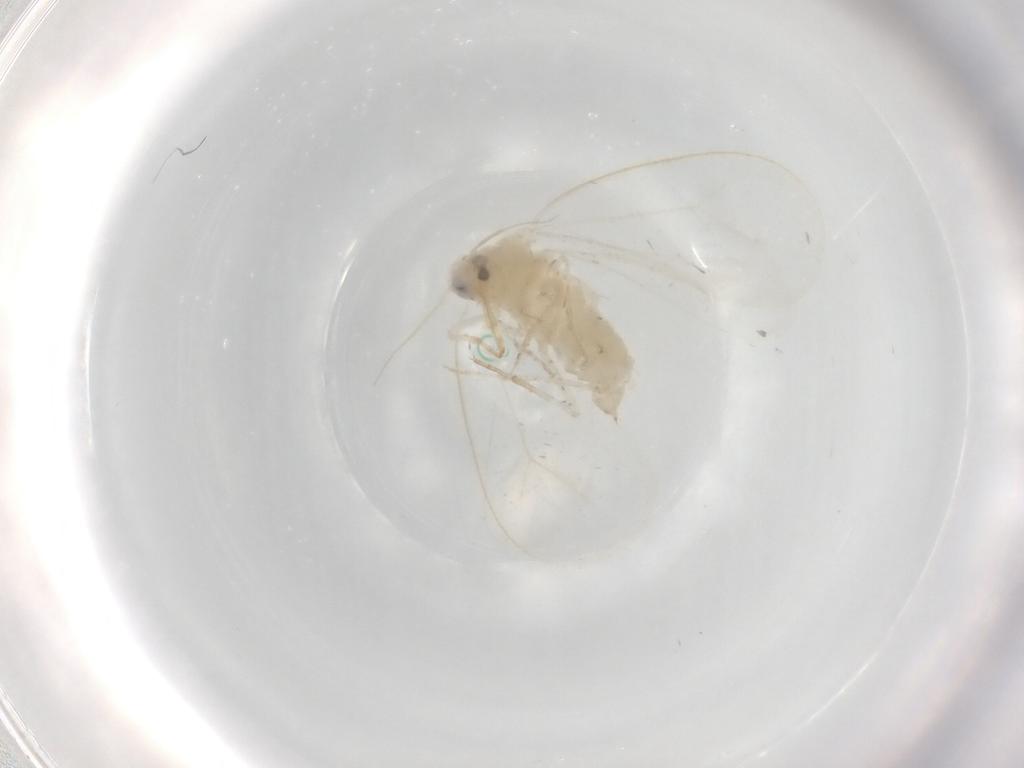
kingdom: Animalia
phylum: Arthropoda
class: Insecta
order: Hemiptera
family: Aleyrodidae
